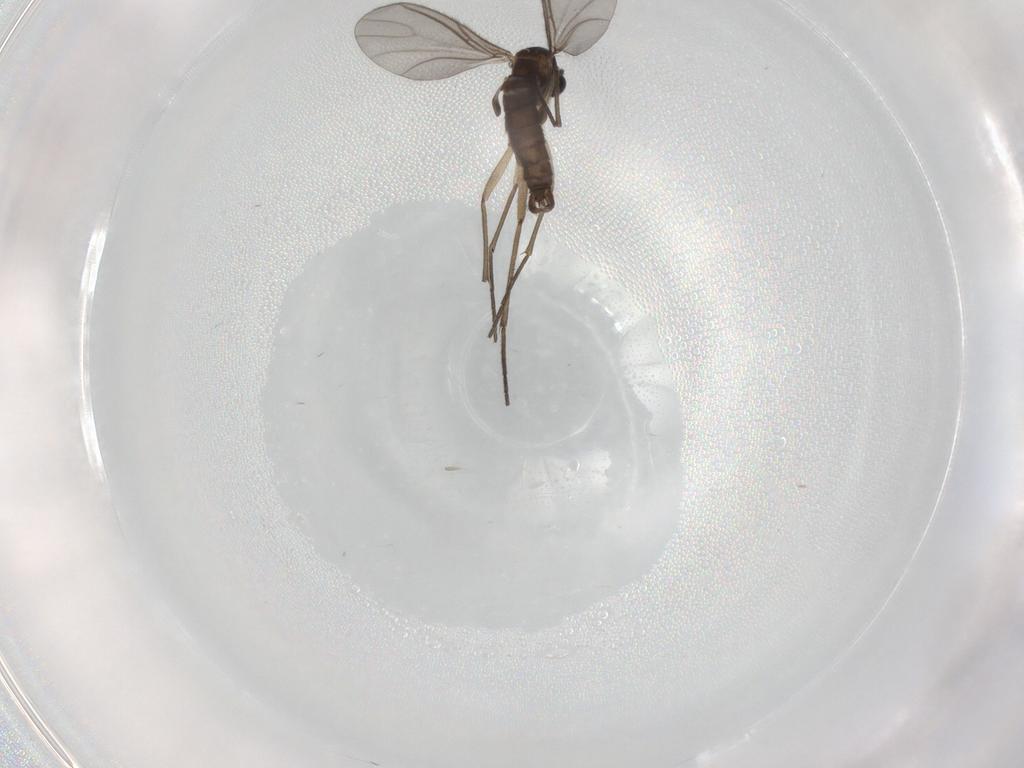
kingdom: Animalia
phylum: Arthropoda
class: Insecta
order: Diptera
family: Sciaridae
